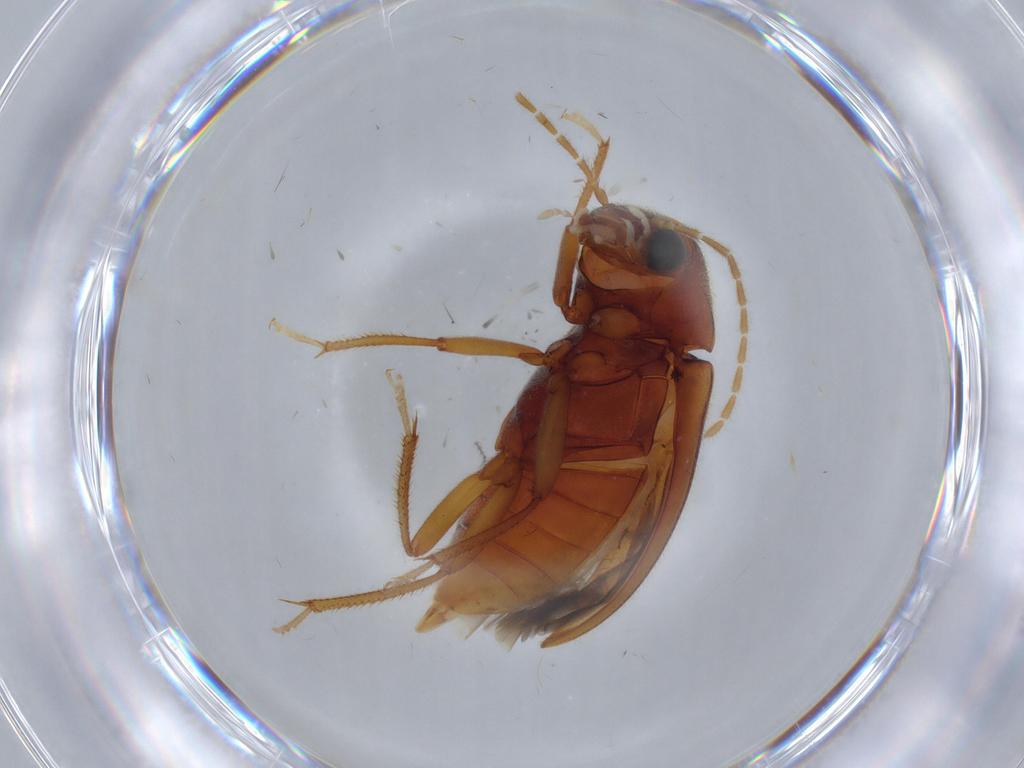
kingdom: Animalia
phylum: Arthropoda
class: Insecta
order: Coleoptera
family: Ptilodactylidae
